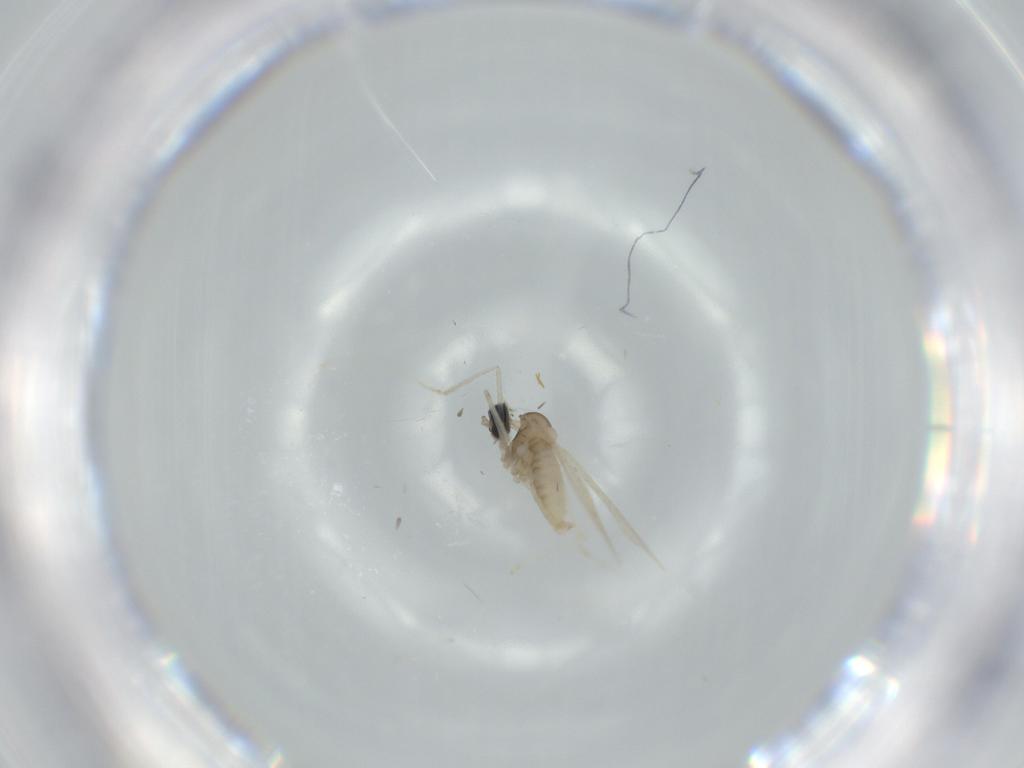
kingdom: Animalia
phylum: Arthropoda
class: Insecta
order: Diptera
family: Cecidomyiidae
